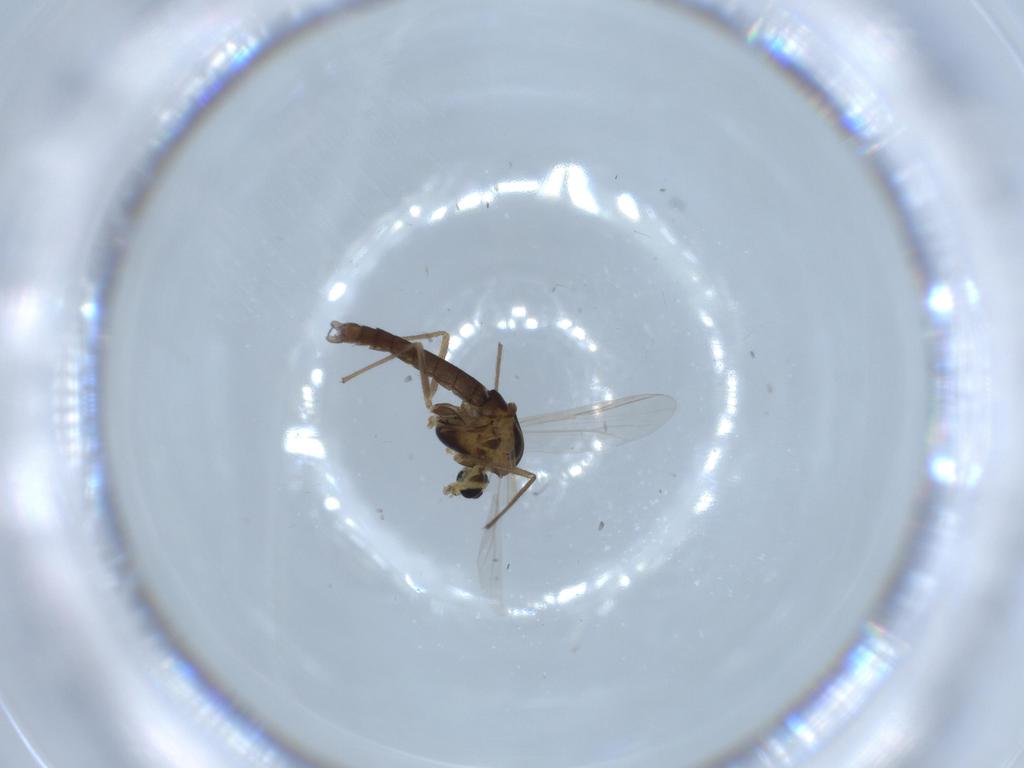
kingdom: Animalia
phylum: Arthropoda
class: Insecta
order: Diptera
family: Chironomidae
